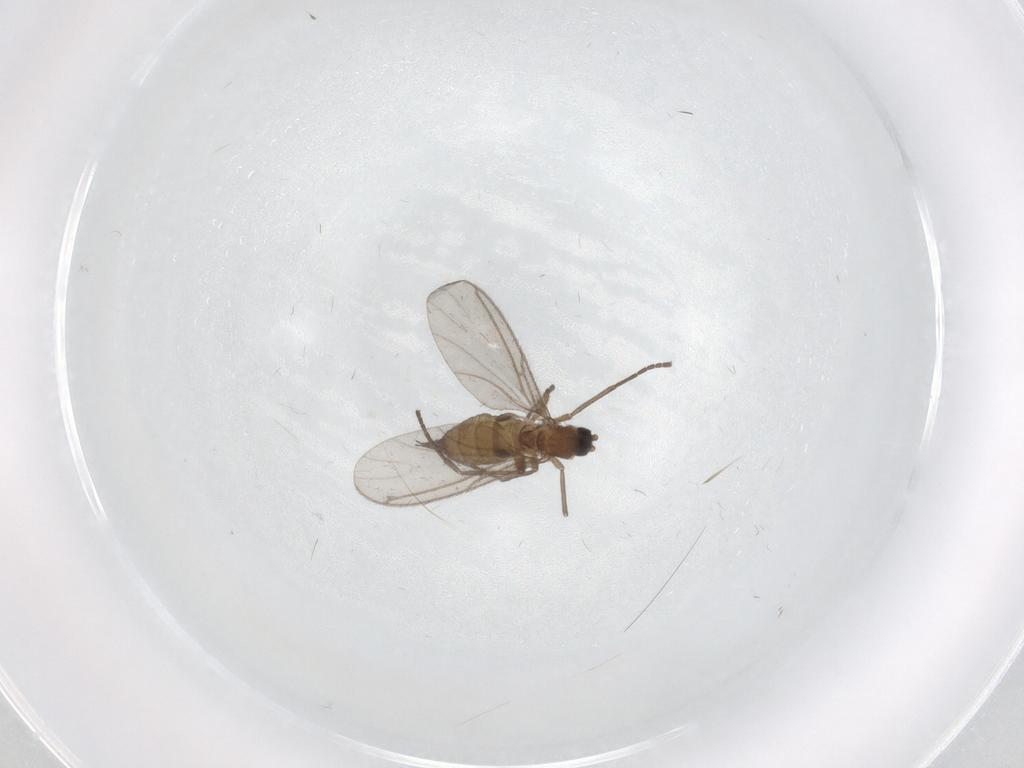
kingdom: Animalia
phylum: Arthropoda
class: Insecta
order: Diptera
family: Sciaridae
